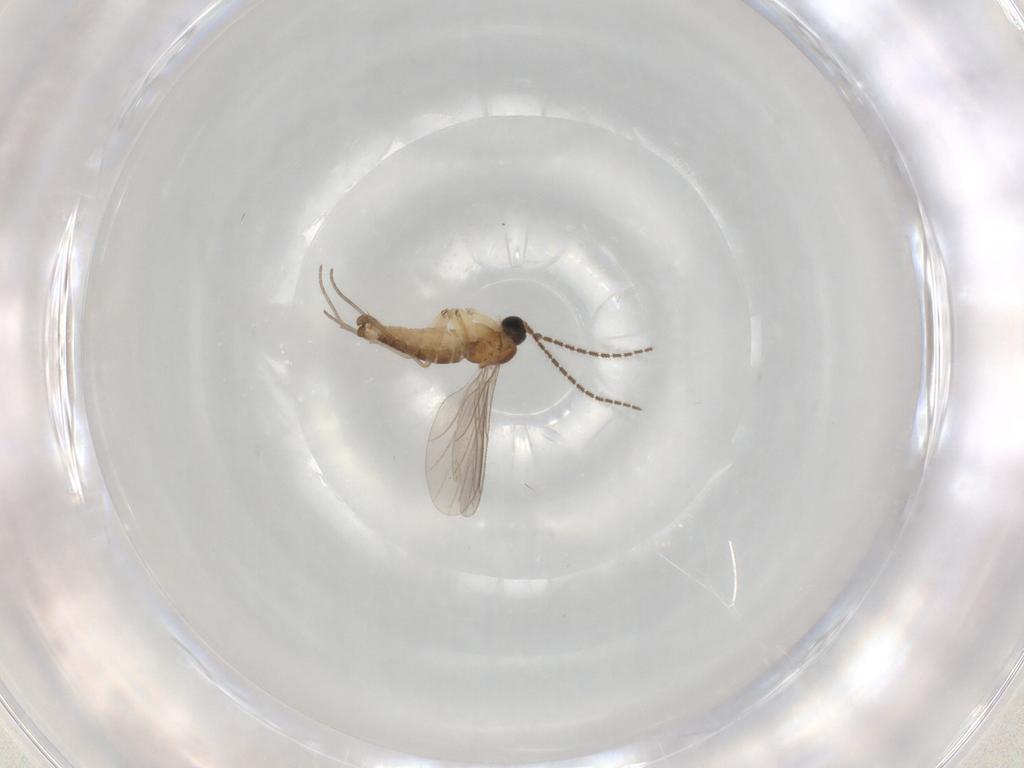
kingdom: Animalia
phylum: Arthropoda
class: Insecta
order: Diptera
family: Sciaridae
